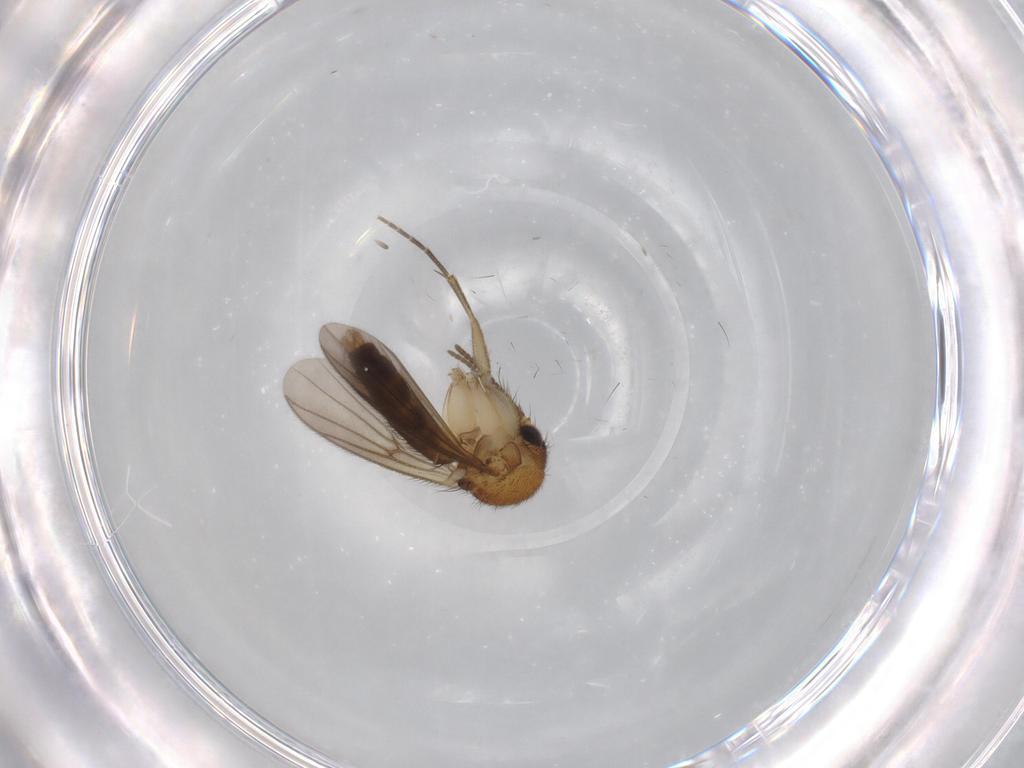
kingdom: Animalia
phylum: Arthropoda
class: Insecta
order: Diptera
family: Mycetophilidae
